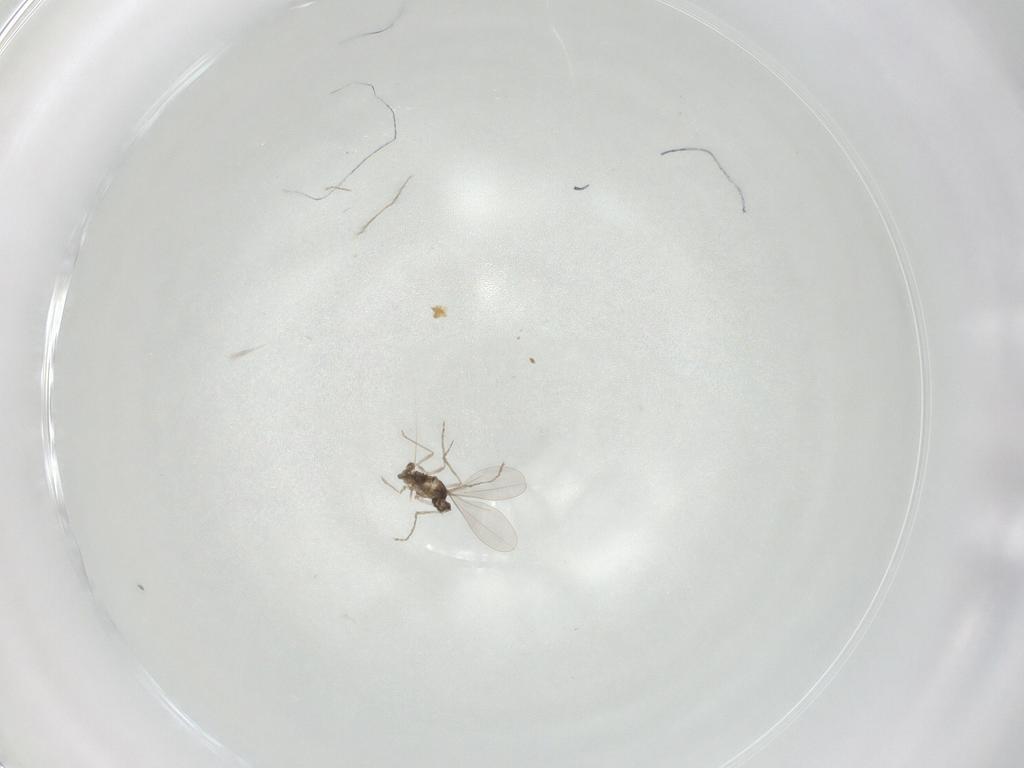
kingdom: Animalia
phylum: Arthropoda
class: Insecta
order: Diptera
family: Cecidomyiidae
